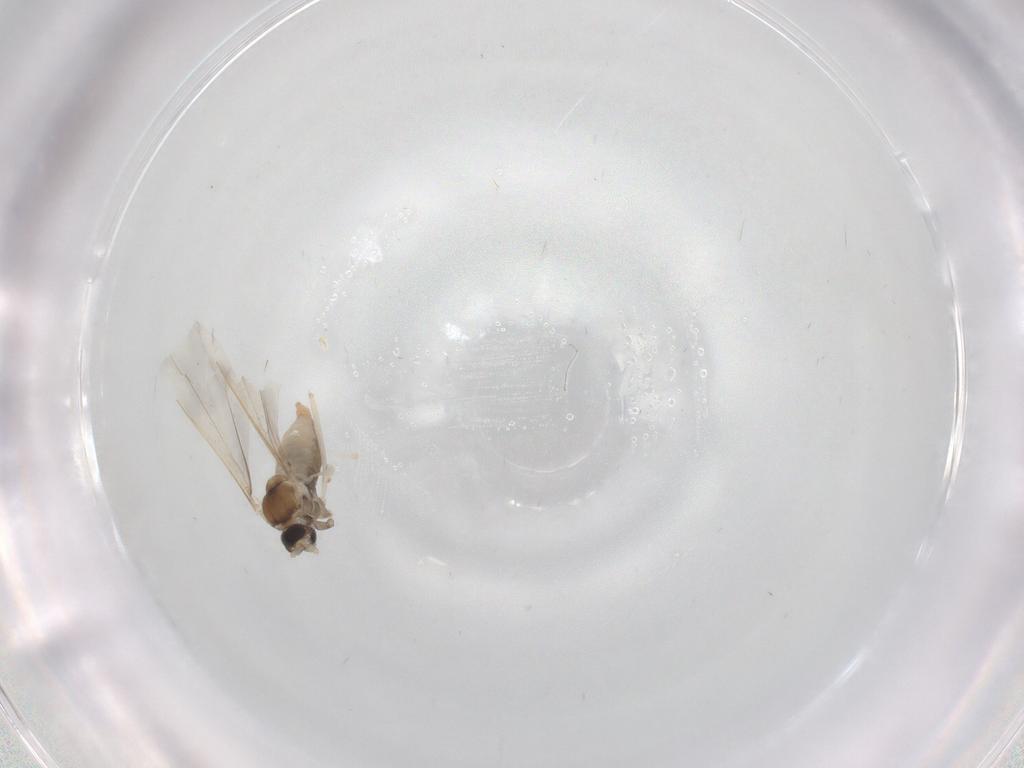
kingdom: Animalia
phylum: Arthropoda
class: Insecta
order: Diptera
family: Cecidomyiidae
